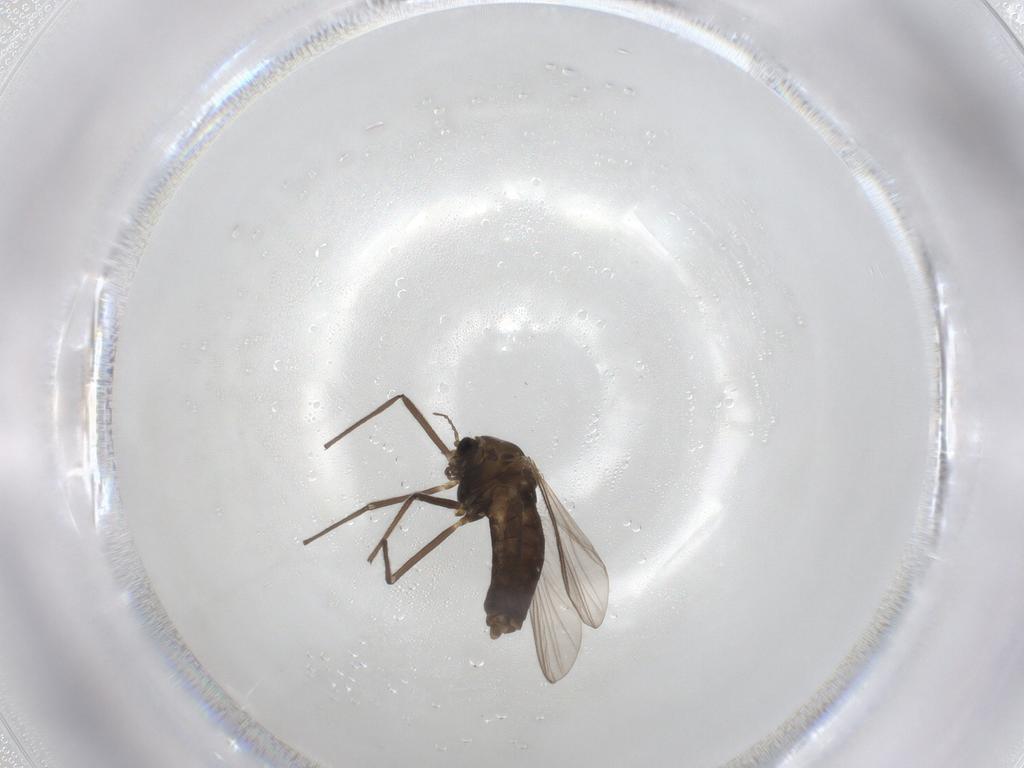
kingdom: Animalia
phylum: Arthropoda
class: Insecta
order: Diptera
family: Chironomidae
